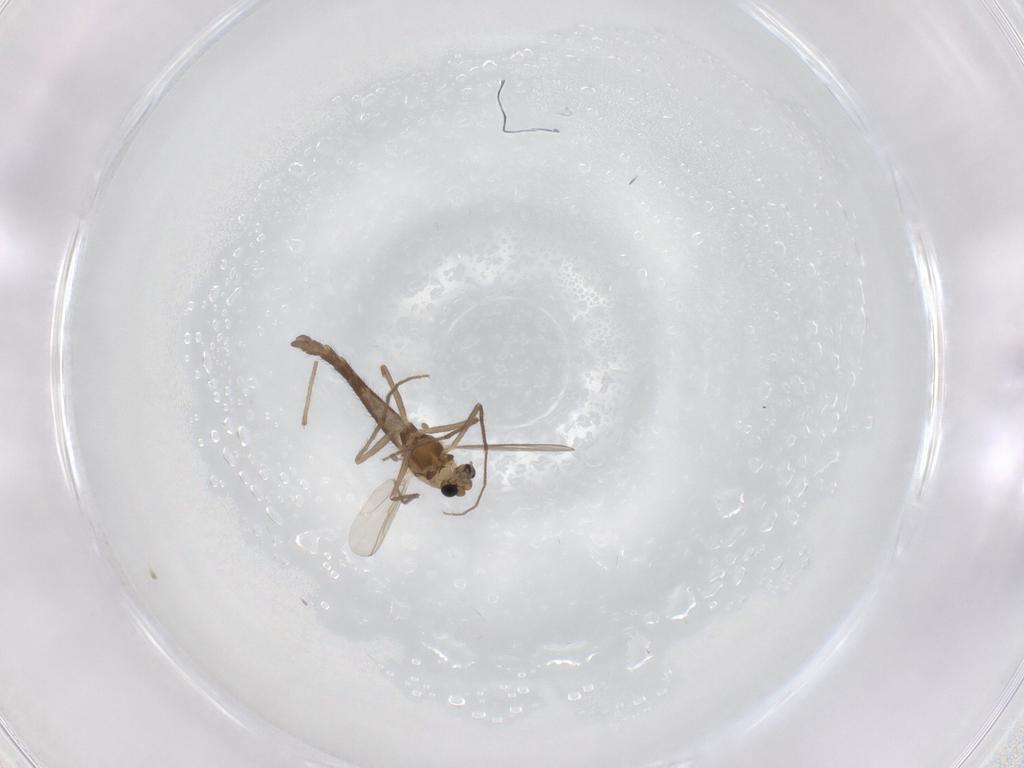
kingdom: Animalia
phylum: Arthropoda
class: Insecta
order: Diptera
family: Chironomidae
